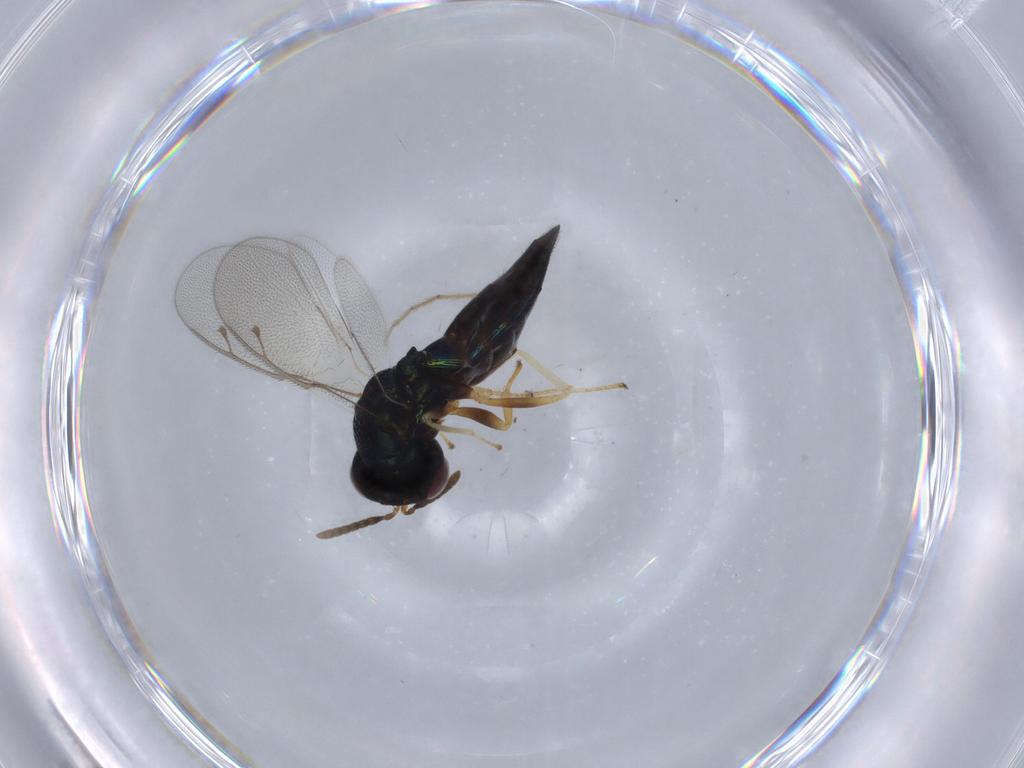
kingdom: Animalia
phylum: Arthropoda
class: Insecta
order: Hymenoptera
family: Pteromalidae
